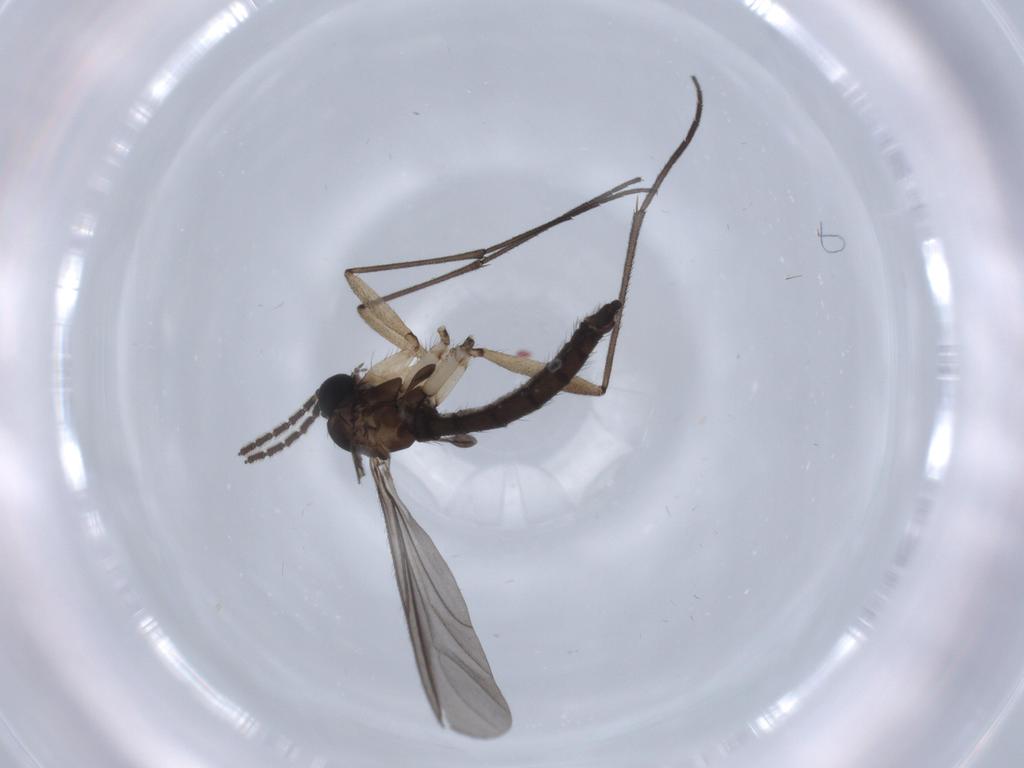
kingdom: Animalia
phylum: Arthropoda
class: Insecta
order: Diptera
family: Sciaridae
